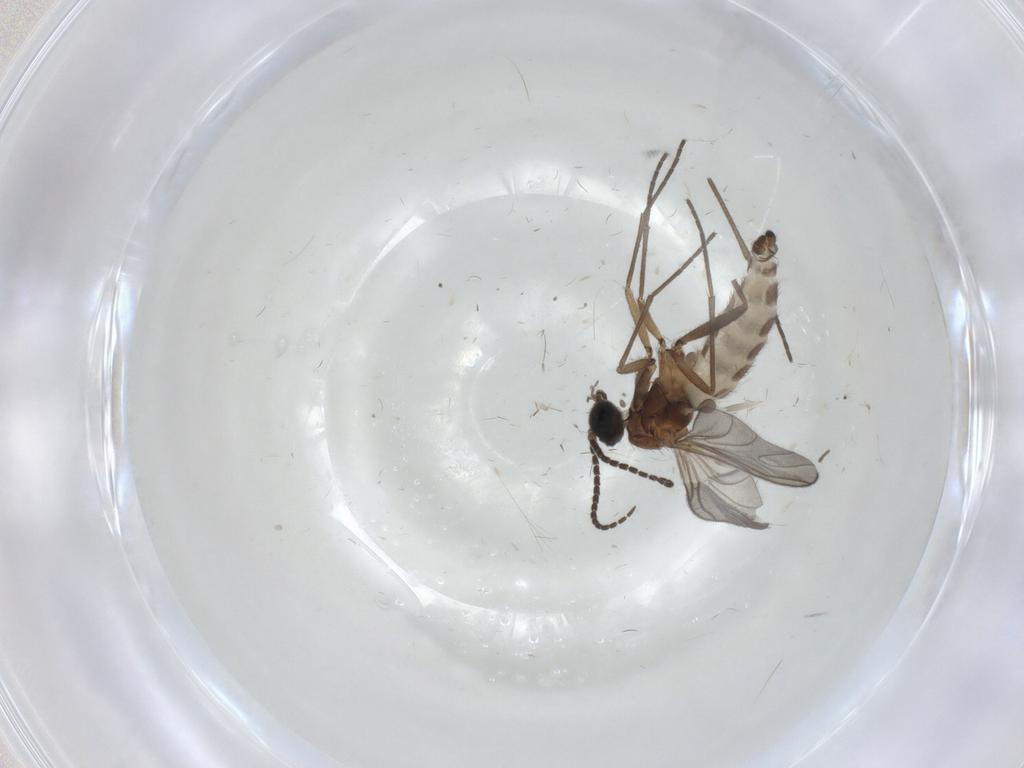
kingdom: Animalia
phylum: Arthropoda
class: Insecta
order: Diptera
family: Sciaridae
